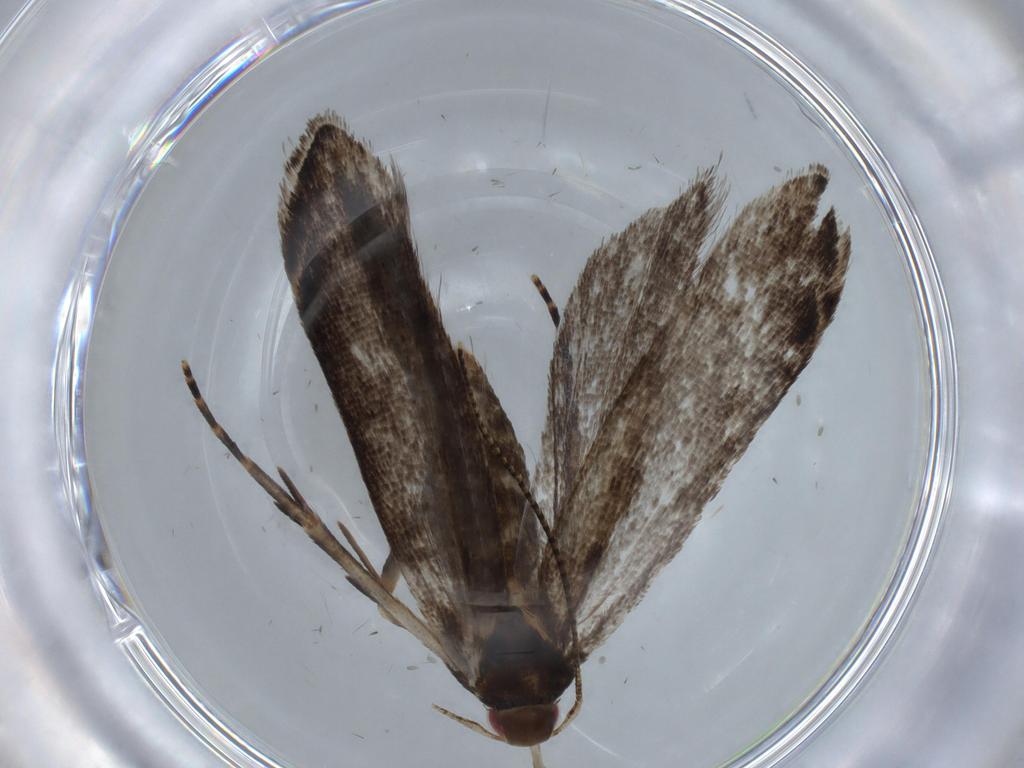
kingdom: Animalia
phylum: Arthropoda
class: Insecta
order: Lepidoptera
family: Gelechiidae
